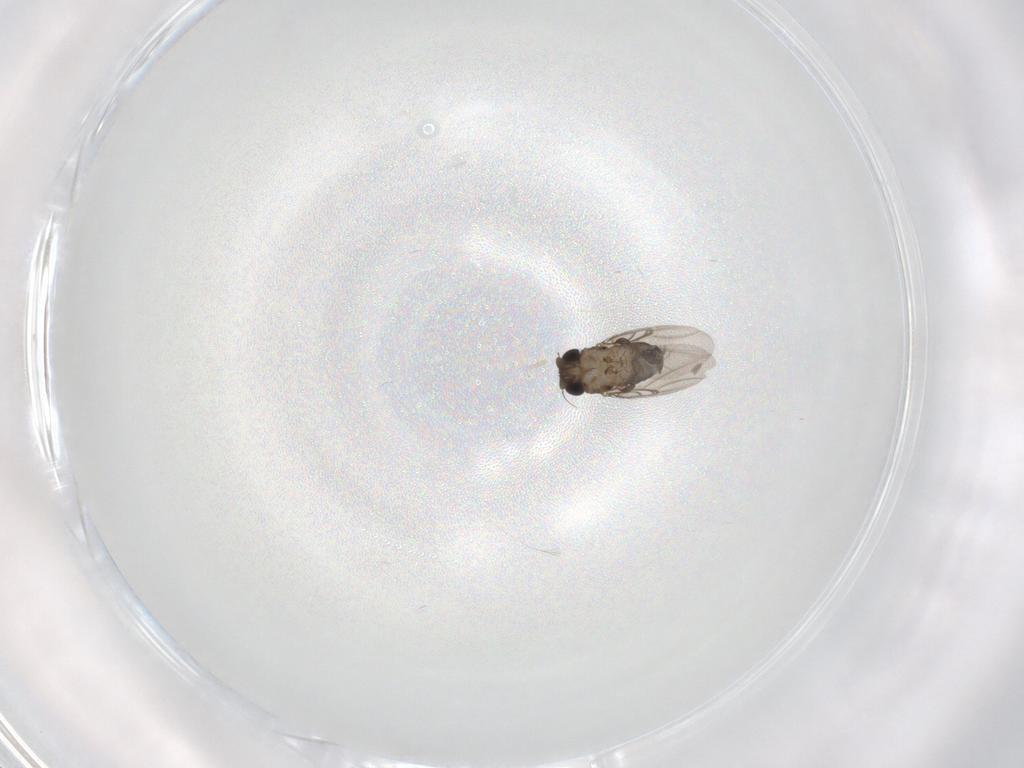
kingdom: Animalia
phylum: Arthropoda
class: Insecta
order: Diptera
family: Phoridae
